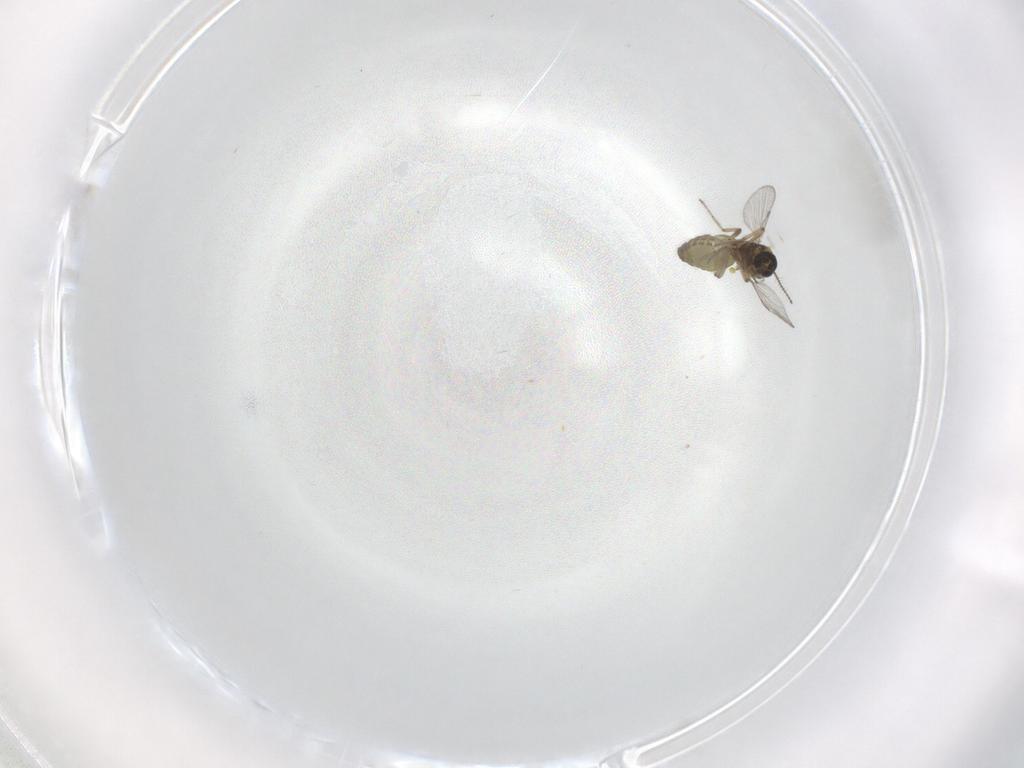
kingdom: Animalia
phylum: Arthropoda
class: Insecta
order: Diptera
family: Ceratopogonidae
